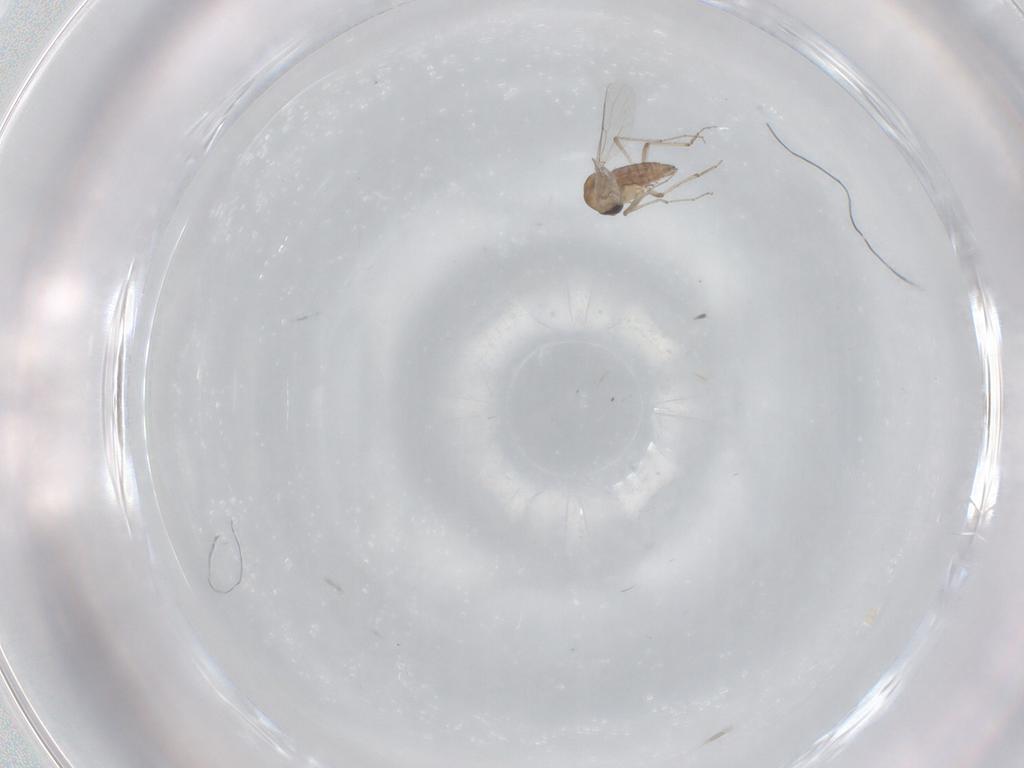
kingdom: Animalia
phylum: Arthropoda
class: Insecta
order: Diptera
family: Ceratopogonidae
